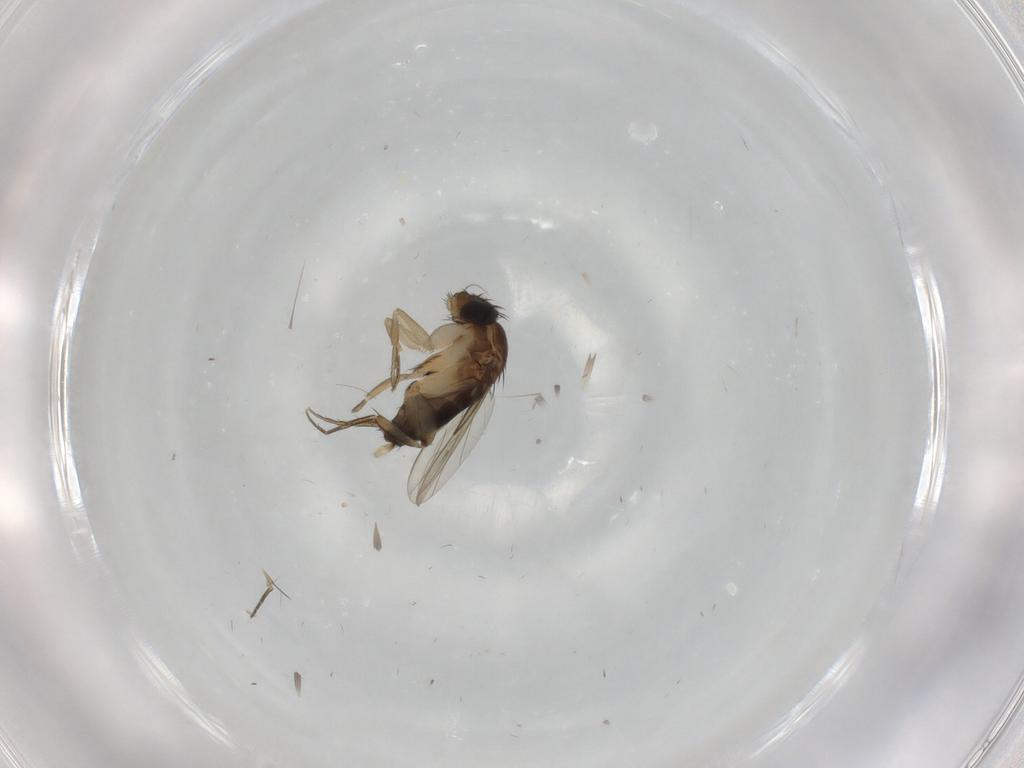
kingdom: Animalia
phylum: Arthropoda
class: Insecta
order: Diptera
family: Phoridae
